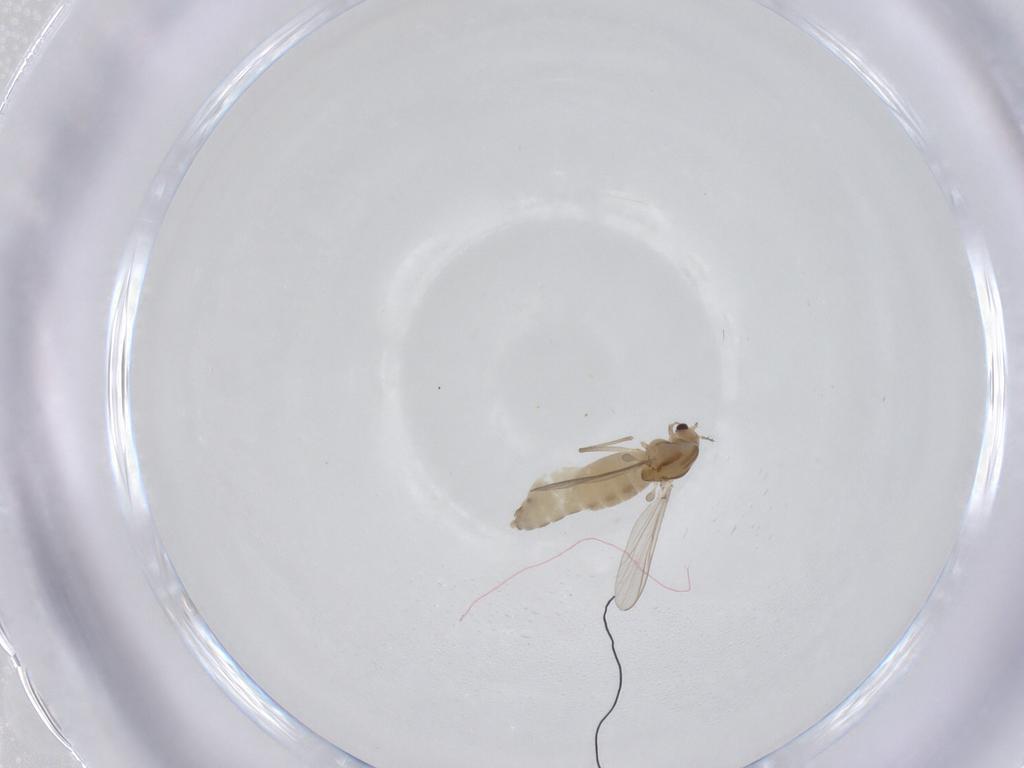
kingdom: Animalia
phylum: Arthropoda
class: Insecta
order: Diptera
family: Chironomidae
